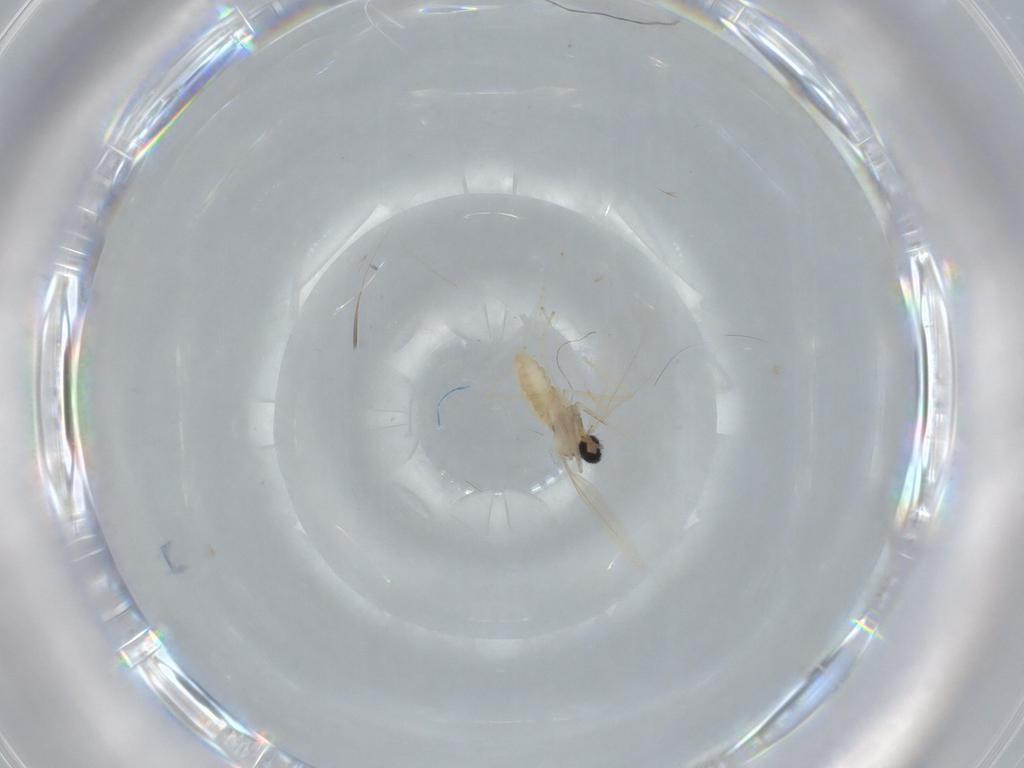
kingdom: Animalia
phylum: Arthropoda
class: Insecta
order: Diptera
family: Cecidomyiidae
